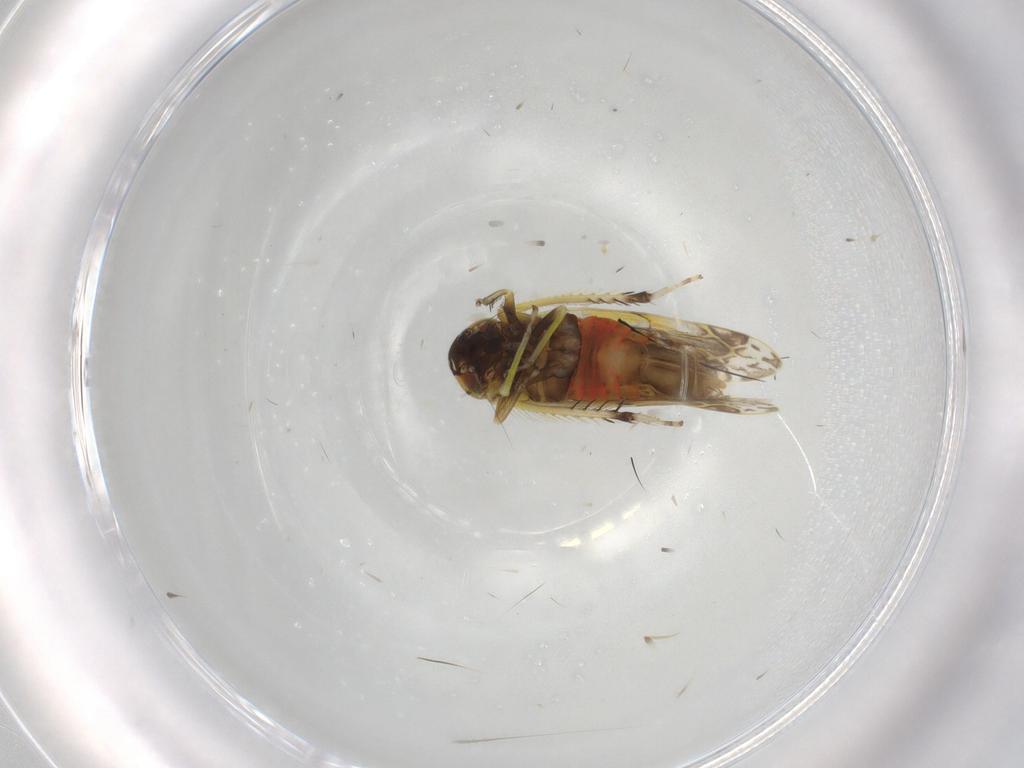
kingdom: Animalia
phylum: Arthropoda
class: Insecta
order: Hemiptera
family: Cicadellidae
